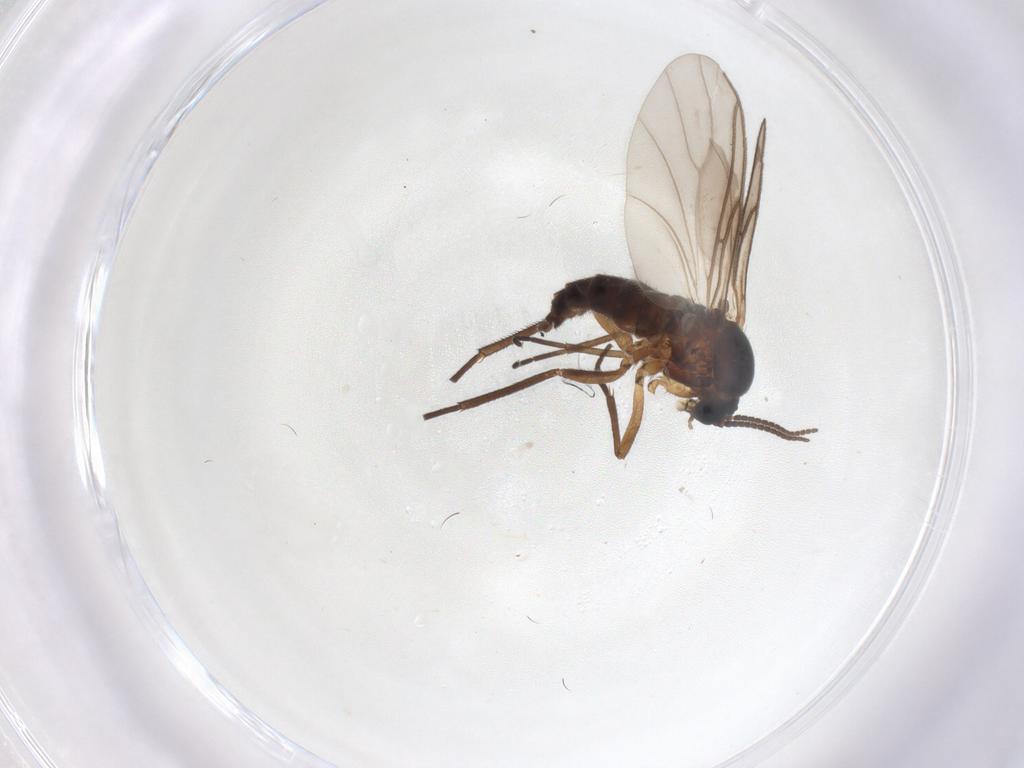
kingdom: Animalia
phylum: Arthropoda
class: Insecta
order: Diptera
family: Sciaridae
